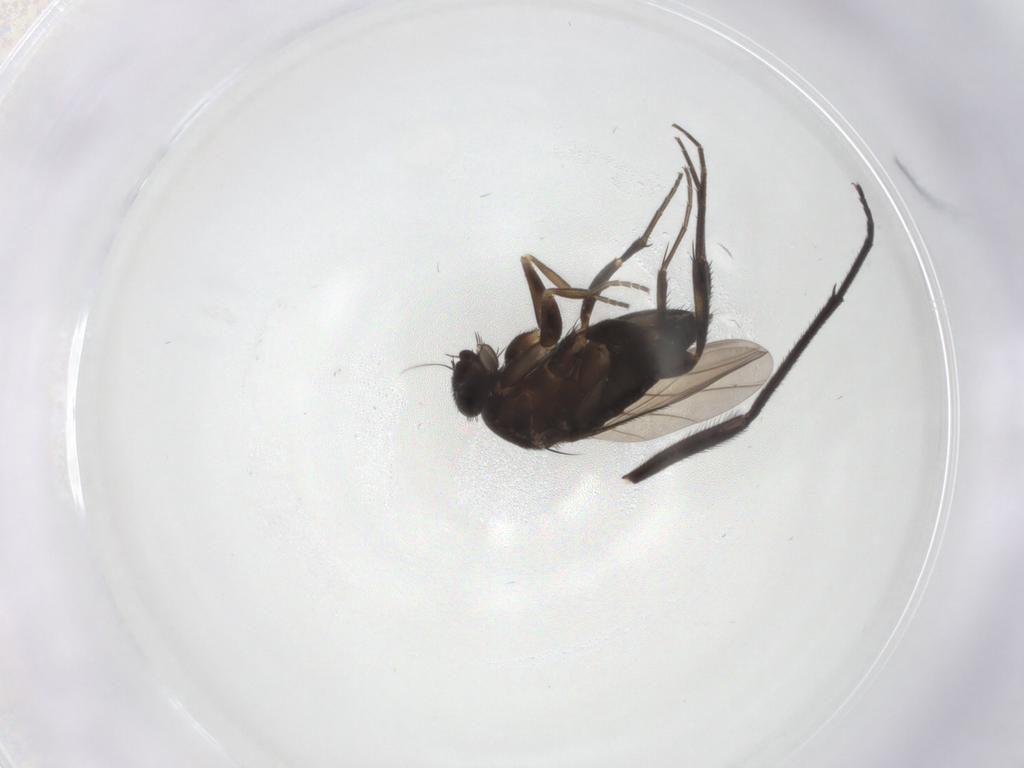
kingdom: Animalia
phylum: Arthropoda
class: Insecta
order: Diptera
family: Phoridae
